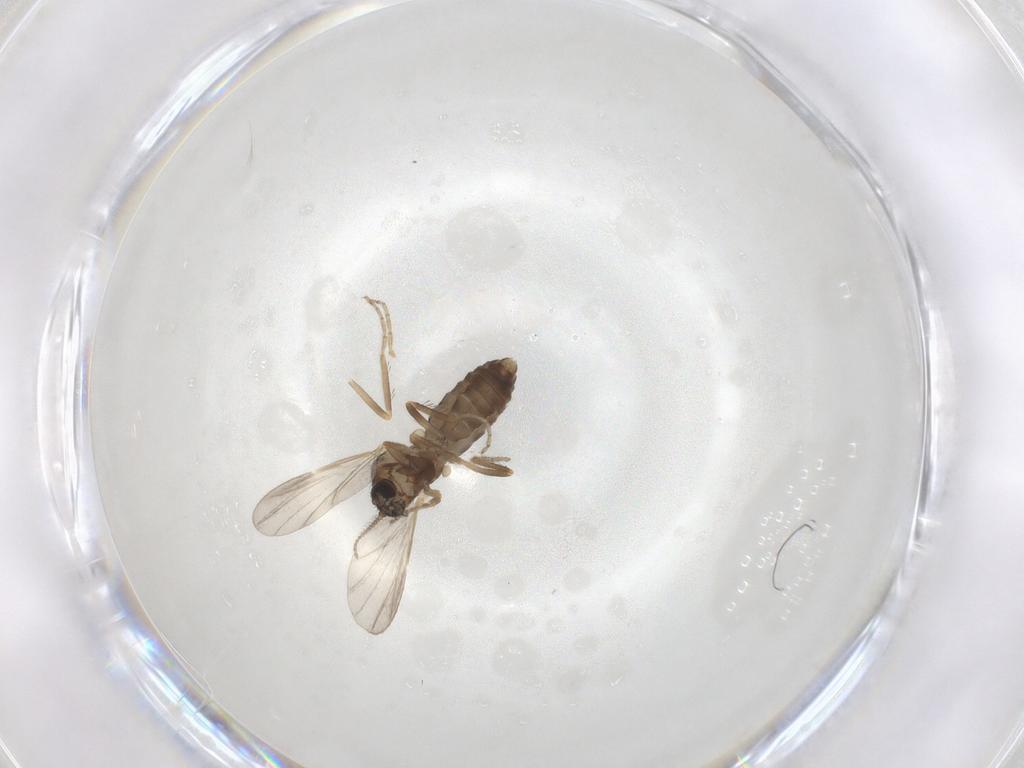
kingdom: Animalia
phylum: Arthropoda
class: Insecta
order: Diptera
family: Ceratopogonidae
